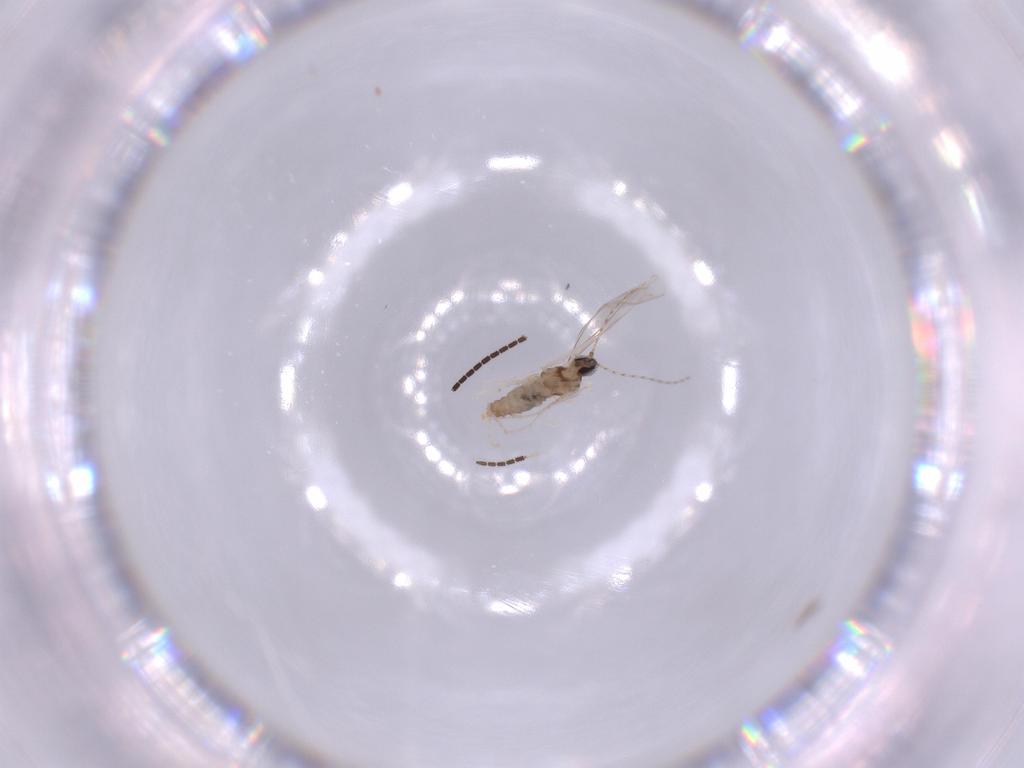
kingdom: Animalia
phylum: Arthropoda
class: Insecta
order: Diptera
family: Cecidomyiidae
